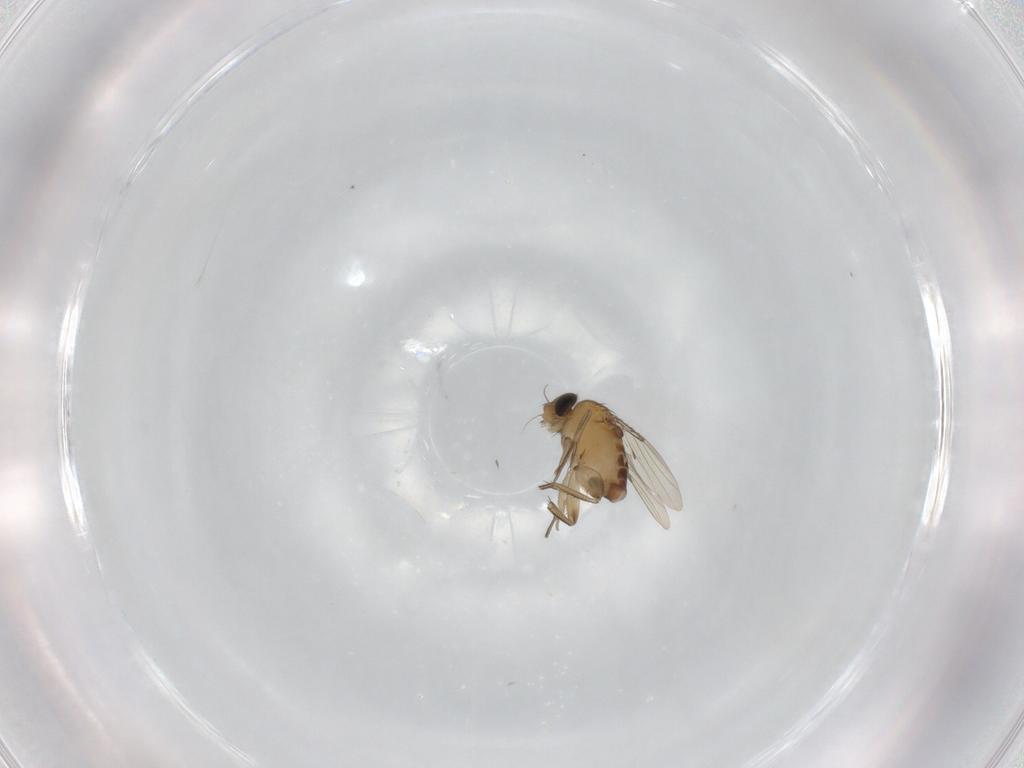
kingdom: Animalia
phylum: Arthropoda
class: Insecta
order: Diptera
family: Phoridae
